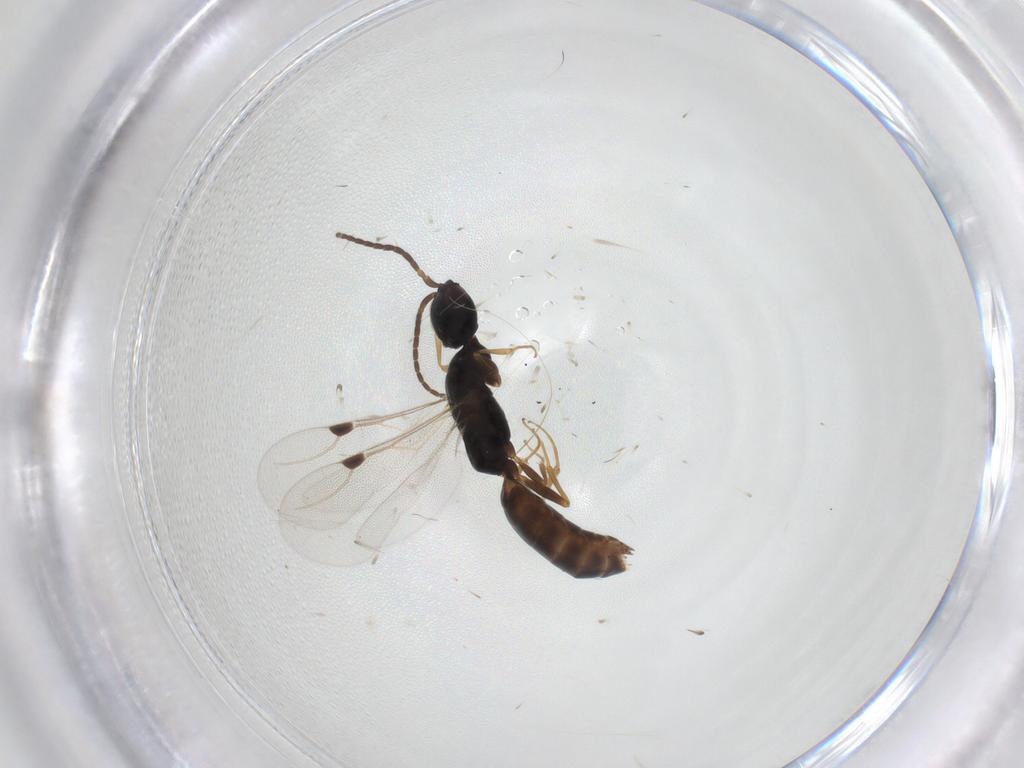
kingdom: Animalia
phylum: Arthropoda
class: Insecta
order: Hymenoptera
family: Bethylidae
